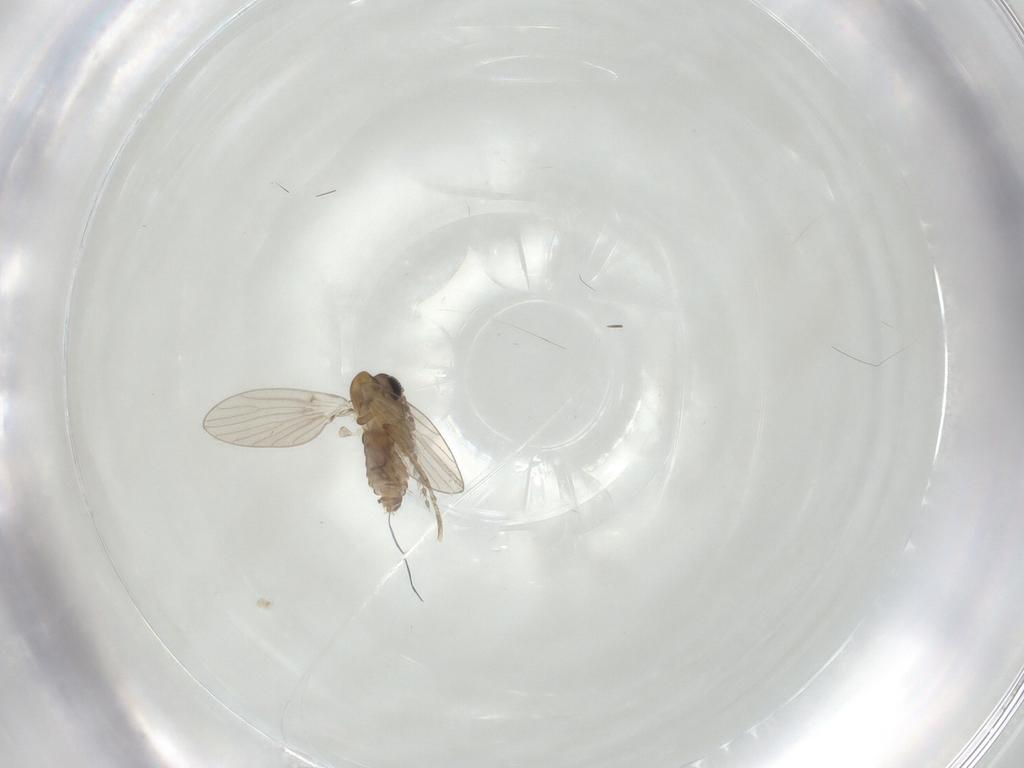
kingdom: Animalia
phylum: Arthropoda
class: Insecta
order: Diptera
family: Psychodidae
